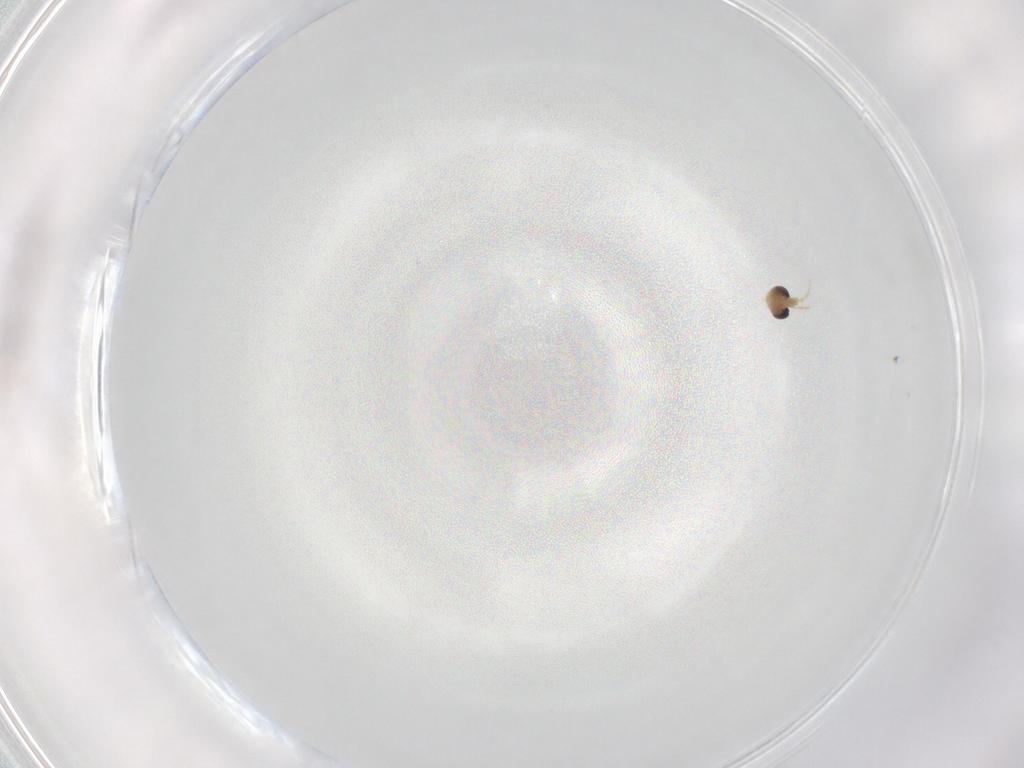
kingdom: Animalia
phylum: Arthropoda
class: Insecta
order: Diptera
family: Chironomidae
